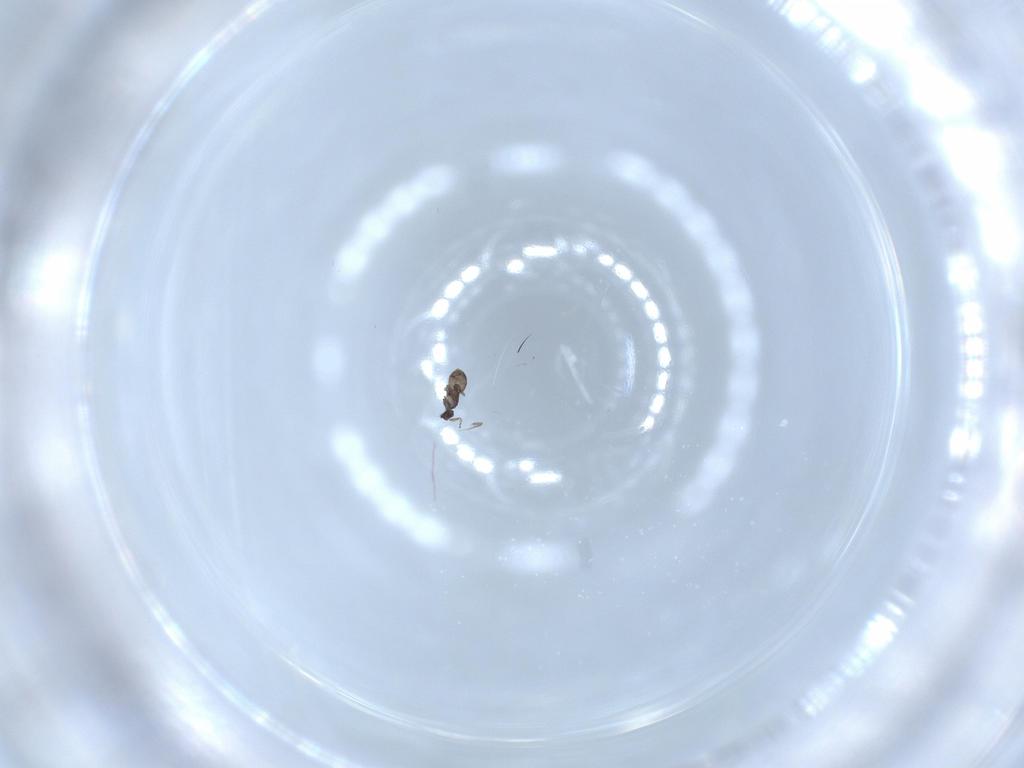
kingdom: Animalia
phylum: Arthropoda
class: Insecta
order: Hymenoptera
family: Mymaridae
